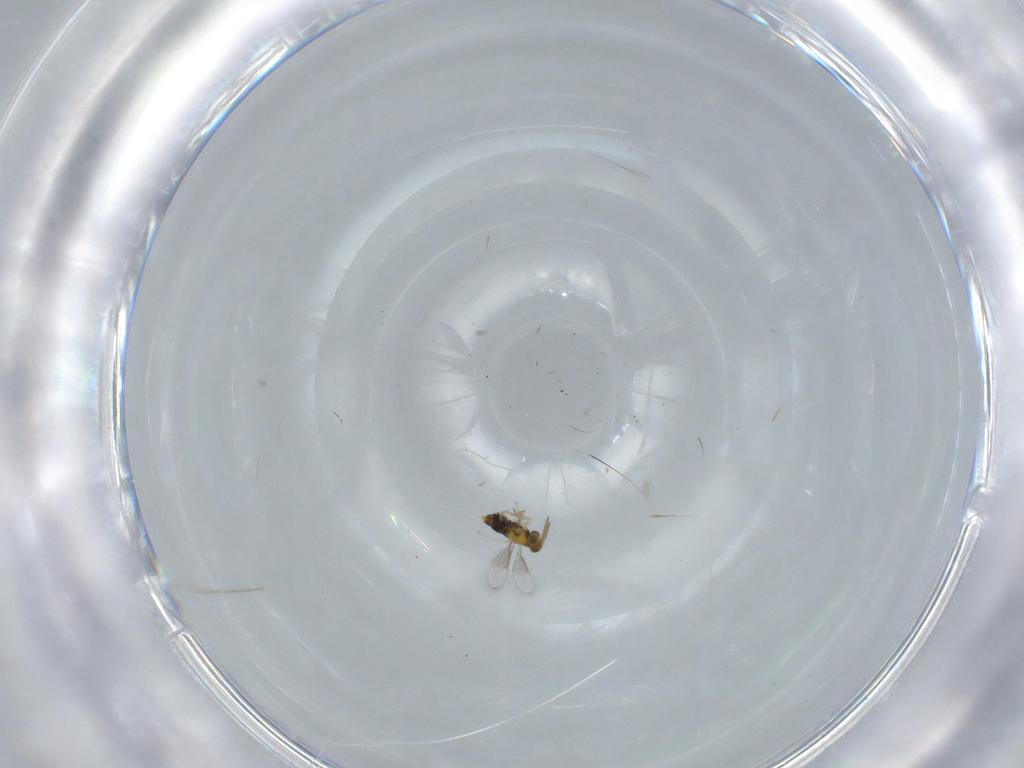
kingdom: Animalia
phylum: Arthropoda
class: Insecta
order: Hymenoptera
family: Aphelinidae
